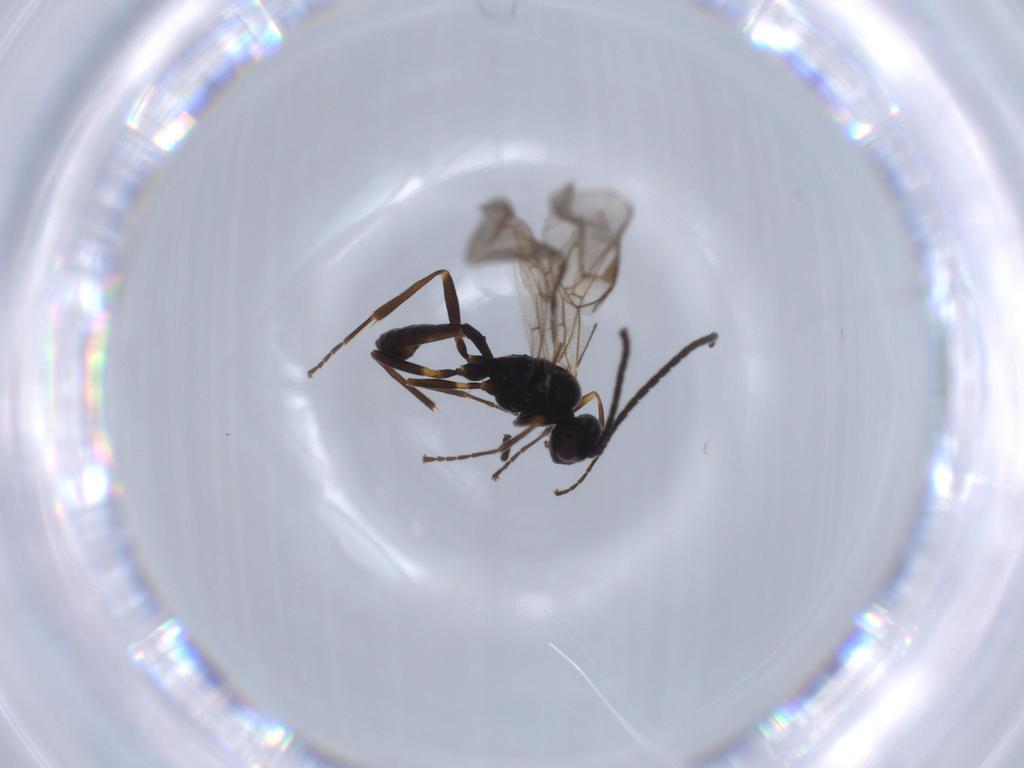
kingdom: Animalia
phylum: Arthropoda
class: Insecta
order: Hymenoptera
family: Ichneumonidae
